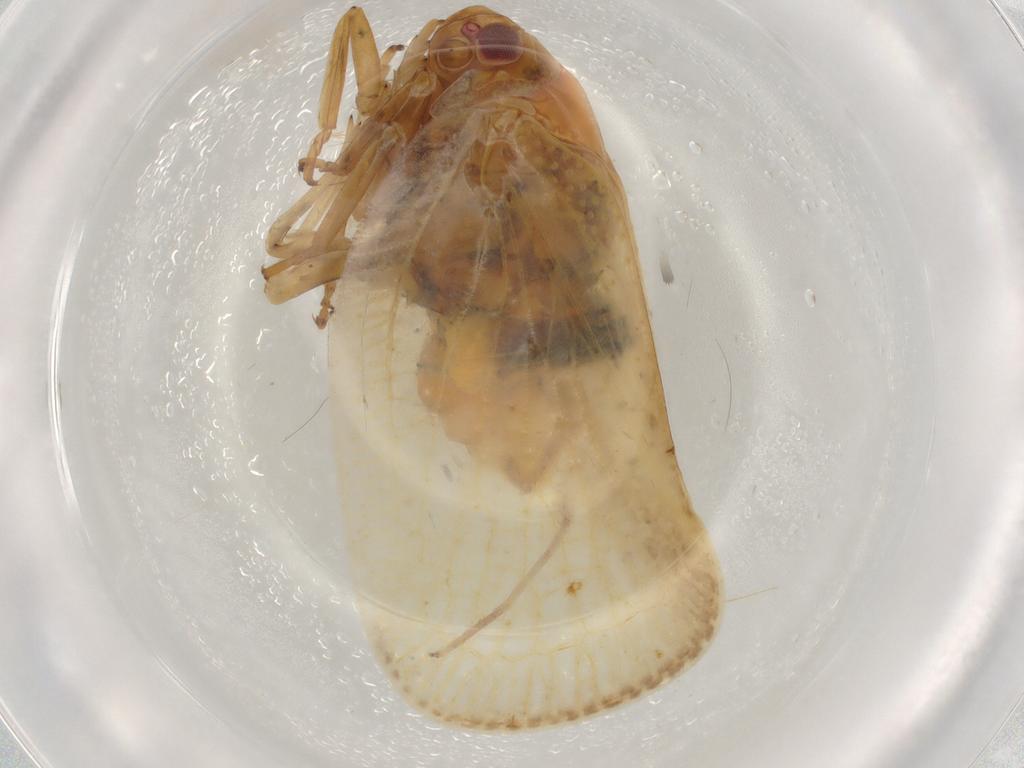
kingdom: Animalia
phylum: Arthropoda
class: Insecta
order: Hemiptera
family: Flatidae
